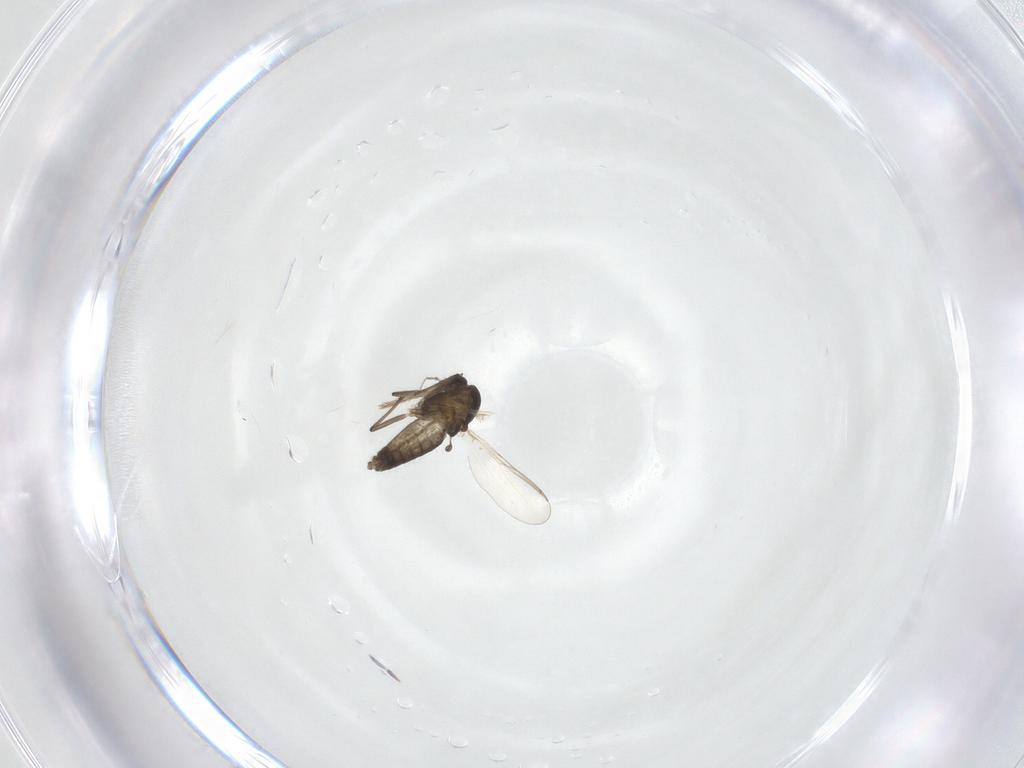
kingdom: Animalia
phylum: Arthropoda
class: Insecta
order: Diptera
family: Chironomidae
